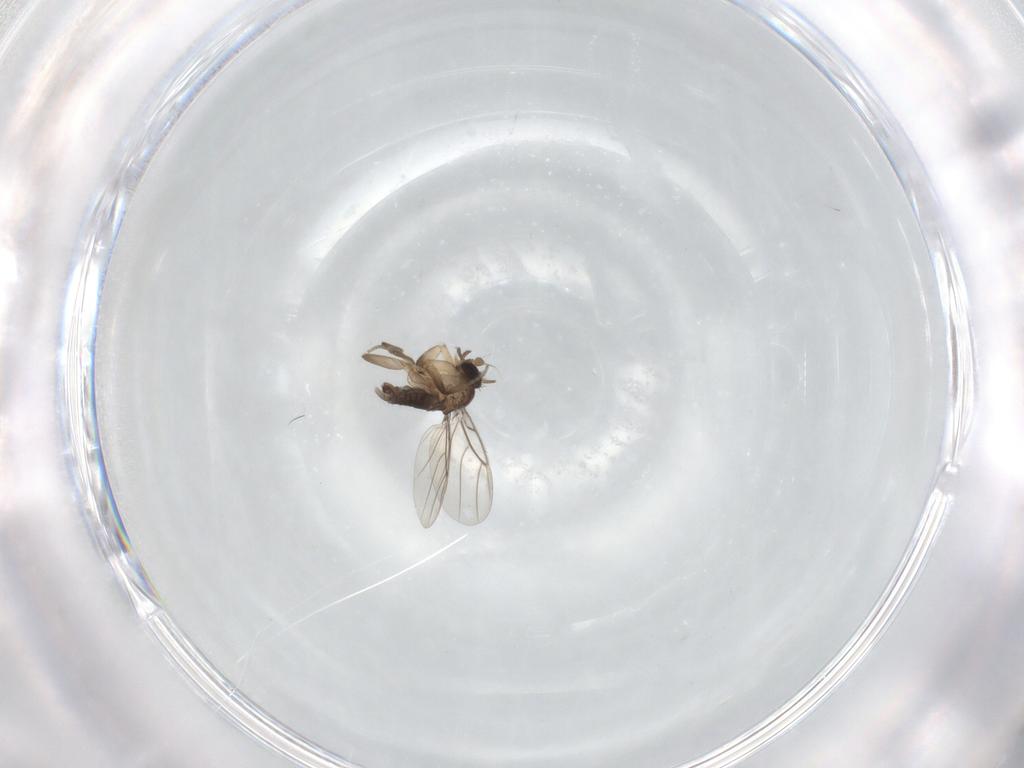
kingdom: Animalia
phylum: Arthropoda
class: Insecta
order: Diptera
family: Phoridae
